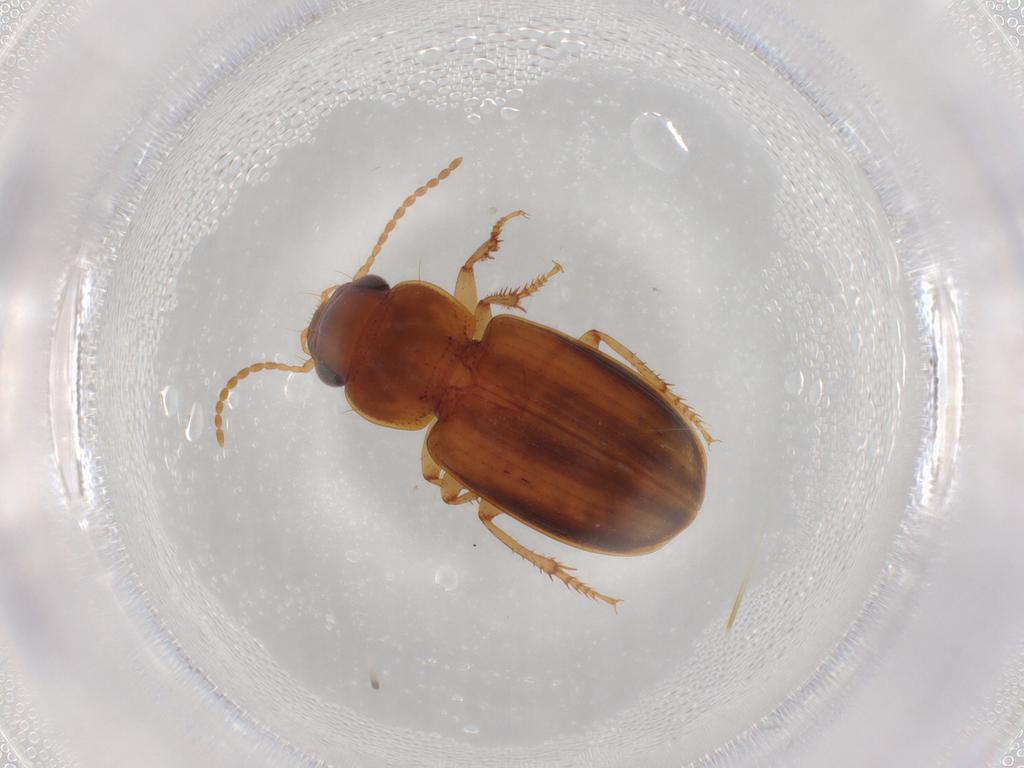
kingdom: Animalia
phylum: Arthropoda
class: Insecta
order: Coleoptera
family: Carabidae
